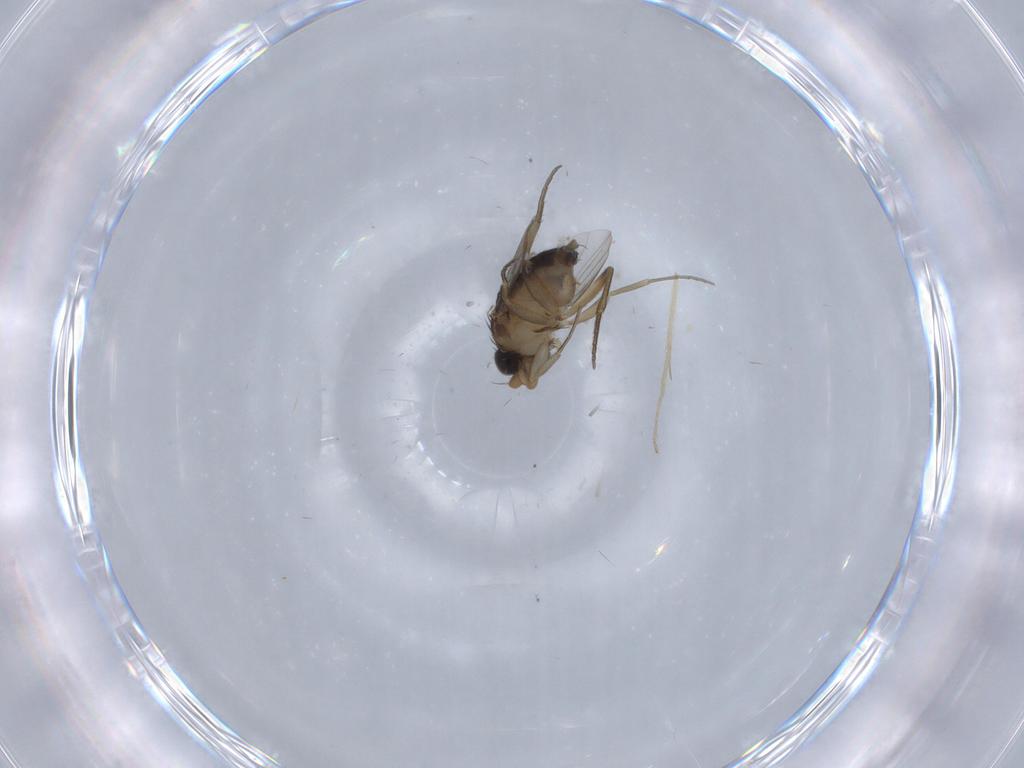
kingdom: Animalia
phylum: Arthropoda
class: Insecta
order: Diptera
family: Phoridae
